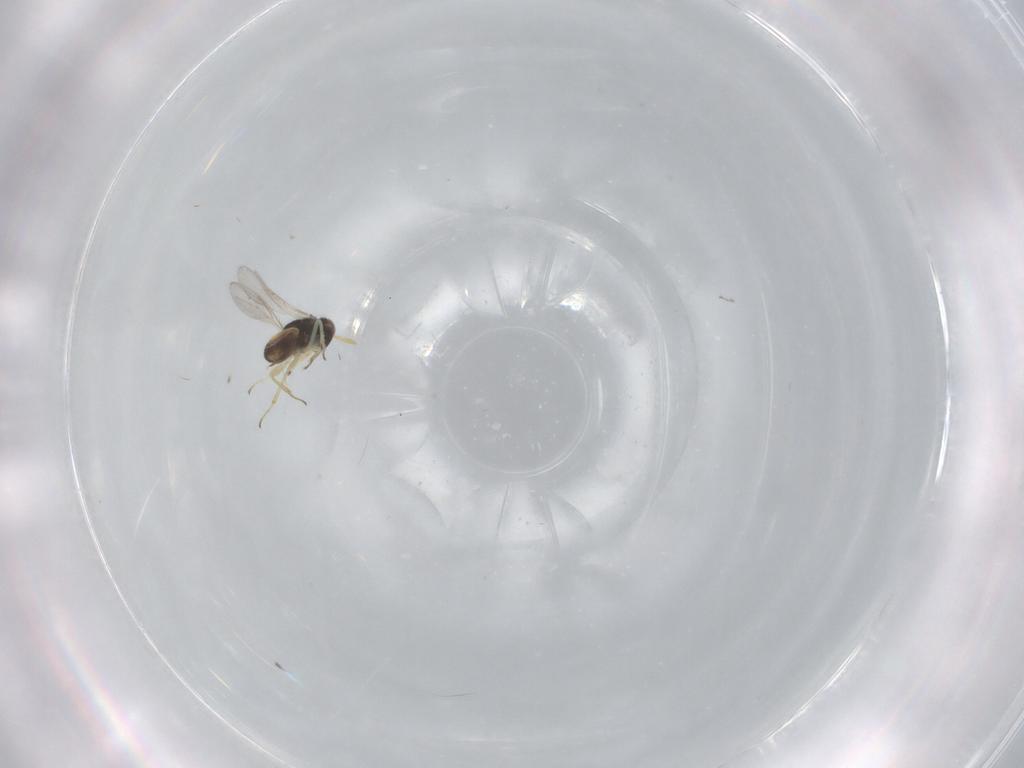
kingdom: Animalia
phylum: Arthropoda
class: Insecta
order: Hymenoptera
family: Aphelinidae
